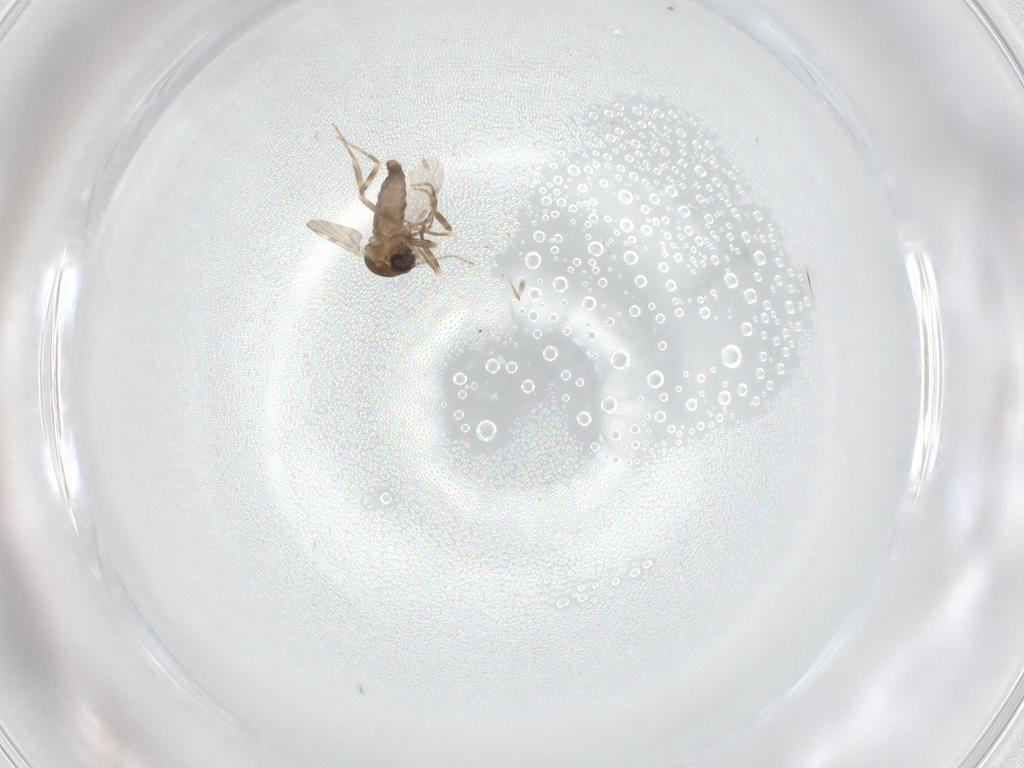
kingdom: Animalia
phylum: Arthropoda
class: Insecta
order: Diptera
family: Ceratopogonidae
